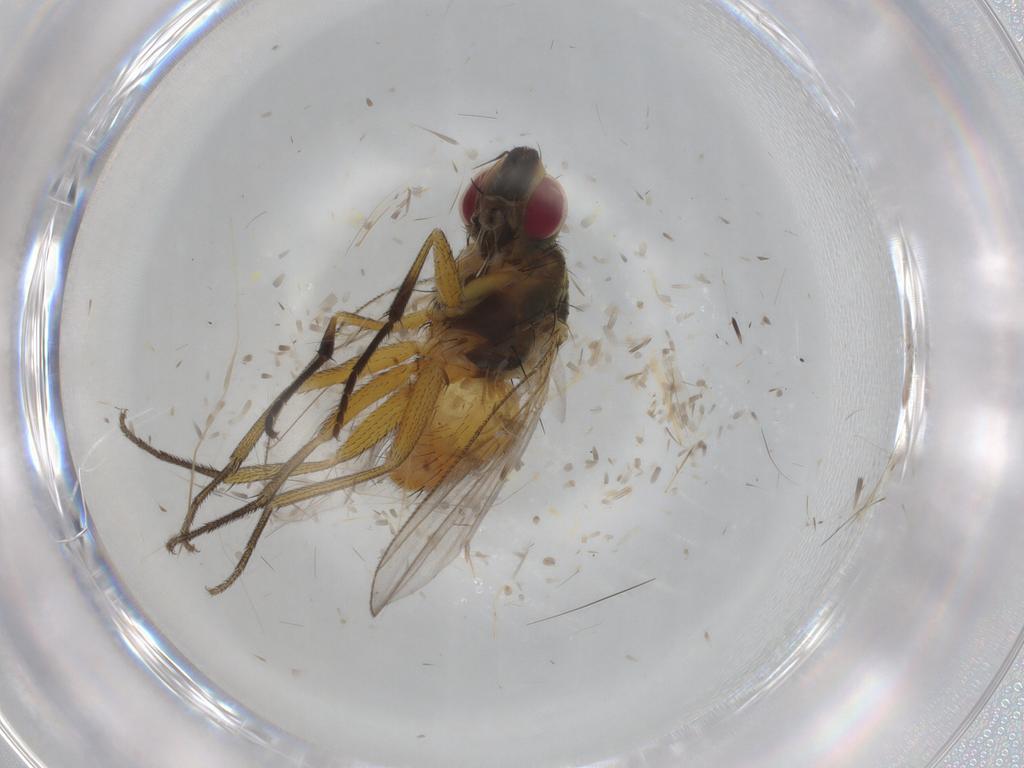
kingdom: Animalia
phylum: Arthropoda
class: Insecta
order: Diptera
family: Muscidae
